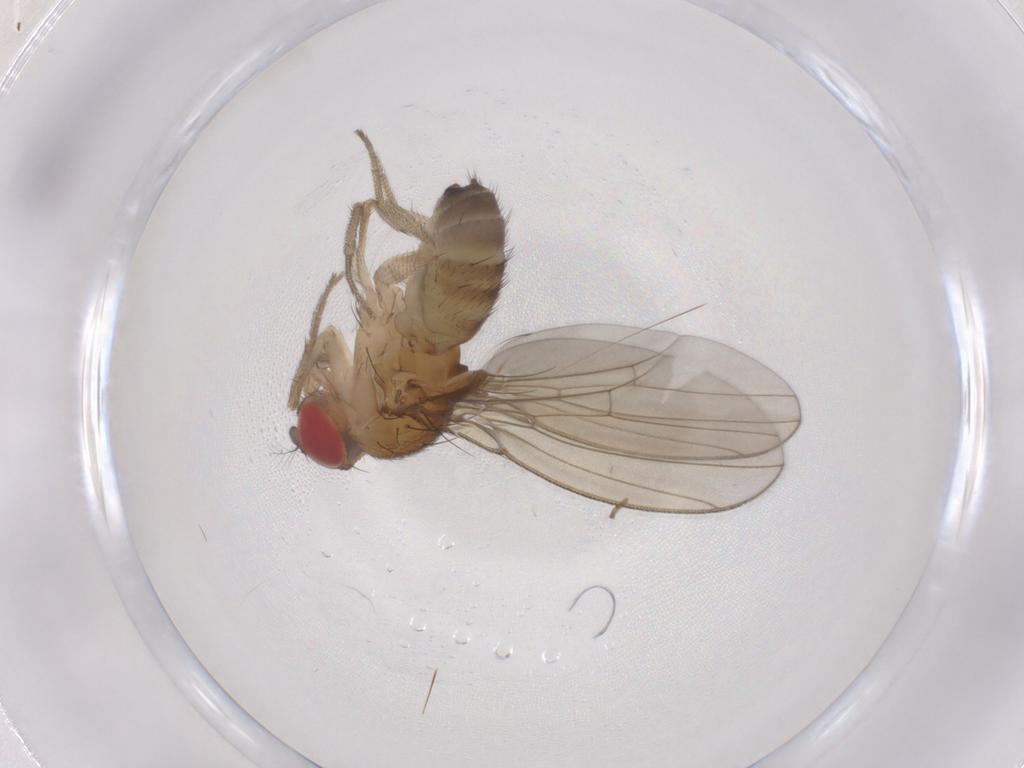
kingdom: Animalia
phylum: Arthropoda
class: Insecta
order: Diptera
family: Drosophilidae
